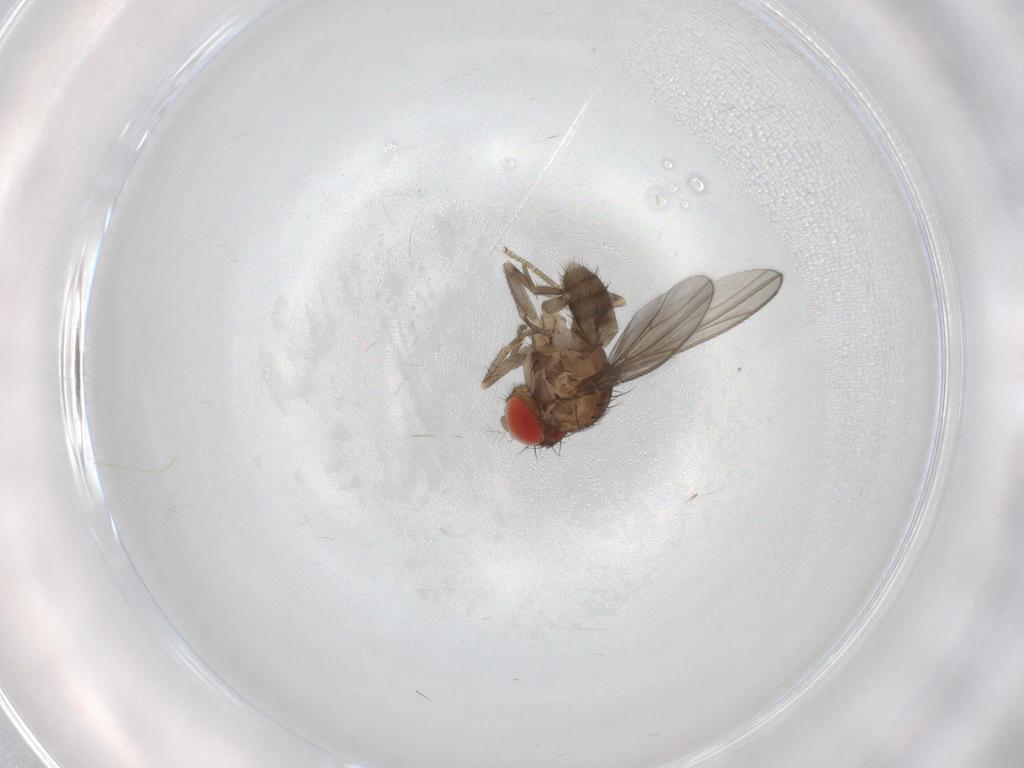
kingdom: Animalia
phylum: Arthropoda
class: Insecta
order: Diptera
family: Drosophilidae
